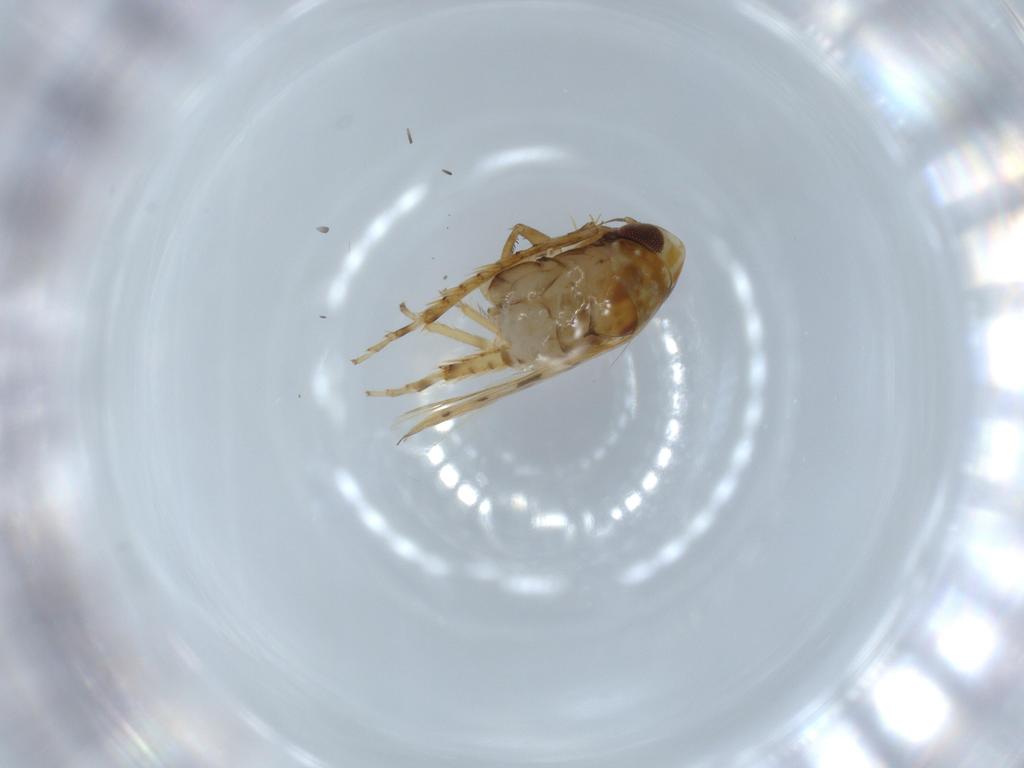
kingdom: Animalia
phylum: Arthropoda
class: Insecta
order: Hemiptera
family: Cicadellidae
